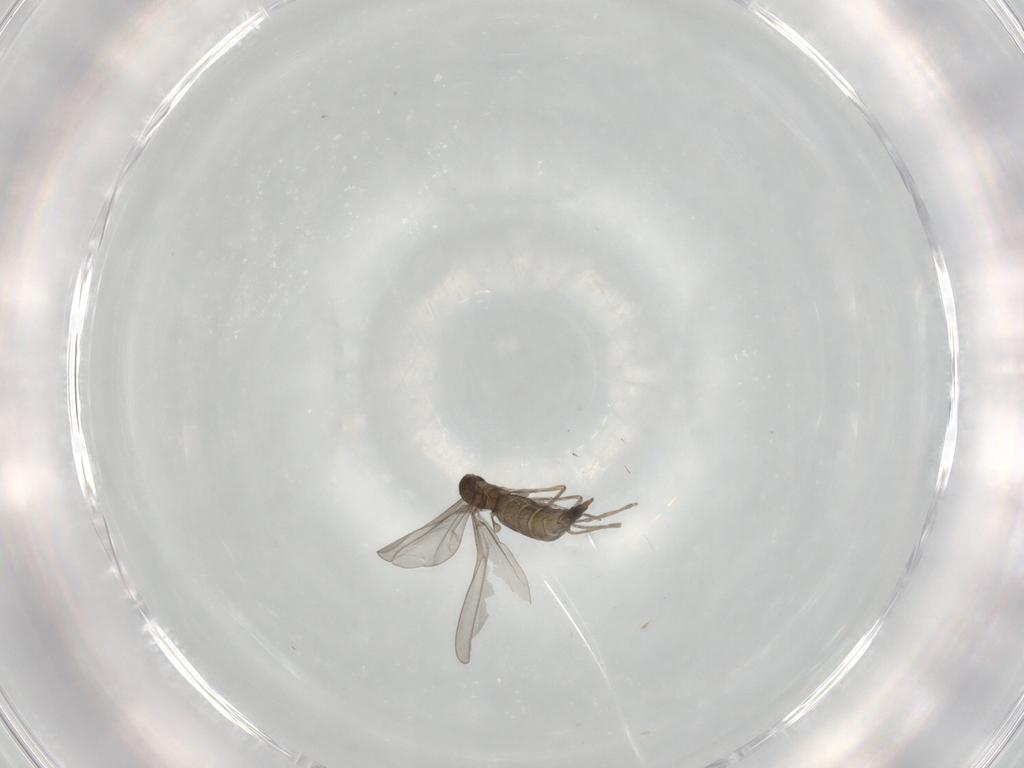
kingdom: Animalia
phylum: Arthropoda
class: Insecta
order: Diptera
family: Cecidomyiidae
